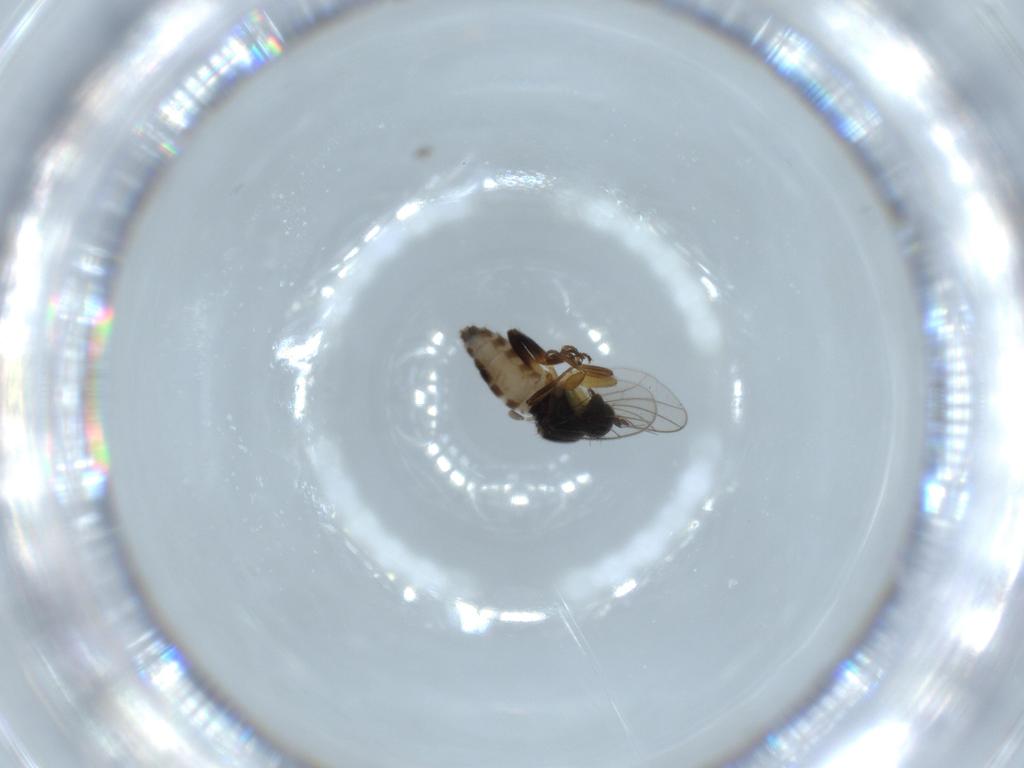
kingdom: Animalia
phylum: Arthropoda
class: Insecta
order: Diptera
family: Hybotidae
